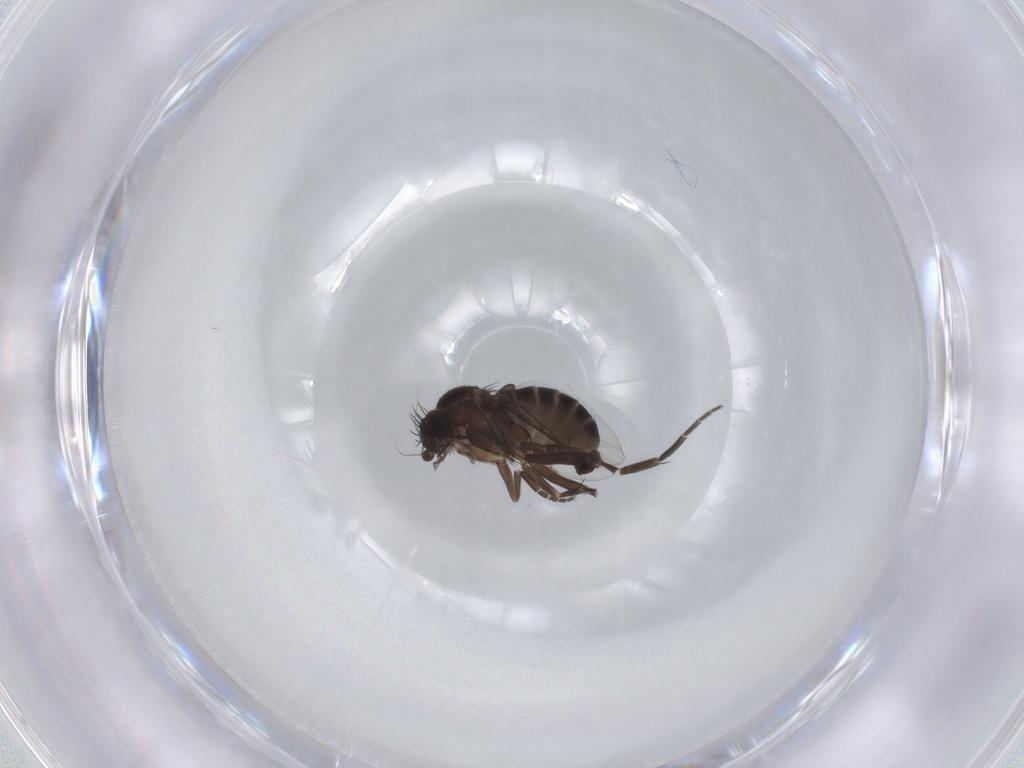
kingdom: Animalia
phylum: Arthropoda
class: Insecta
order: Diptera
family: Phoridae
